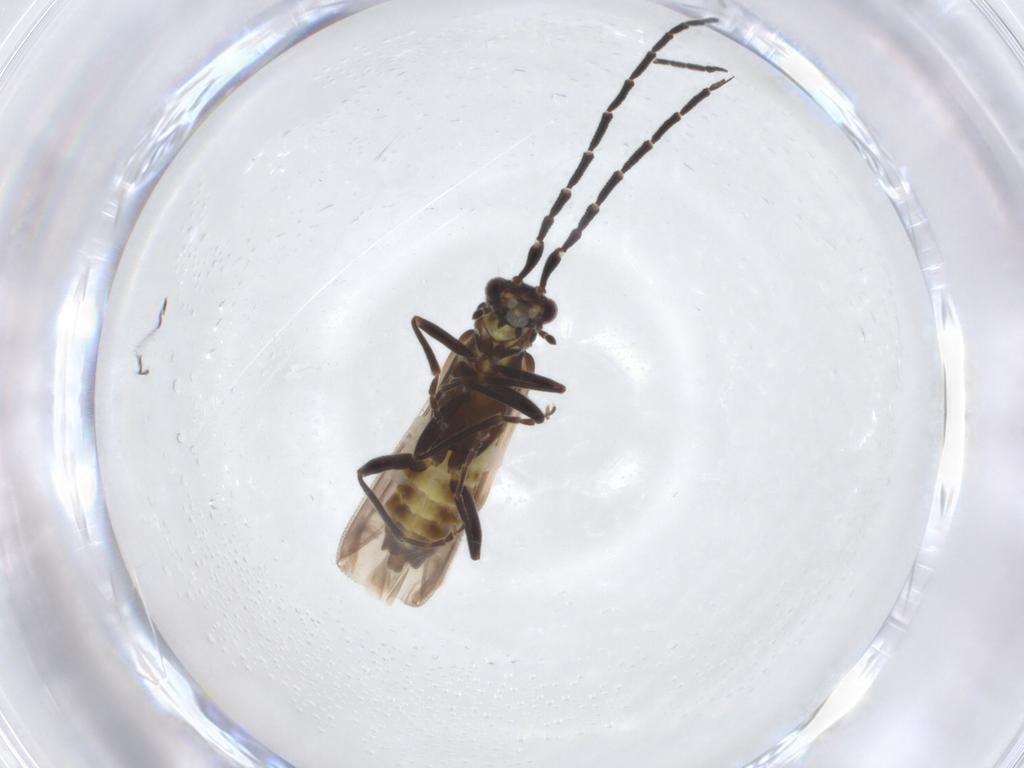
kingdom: Animalia
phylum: Arthropoda
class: Insecta
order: Coleoptera
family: Cantharidae
